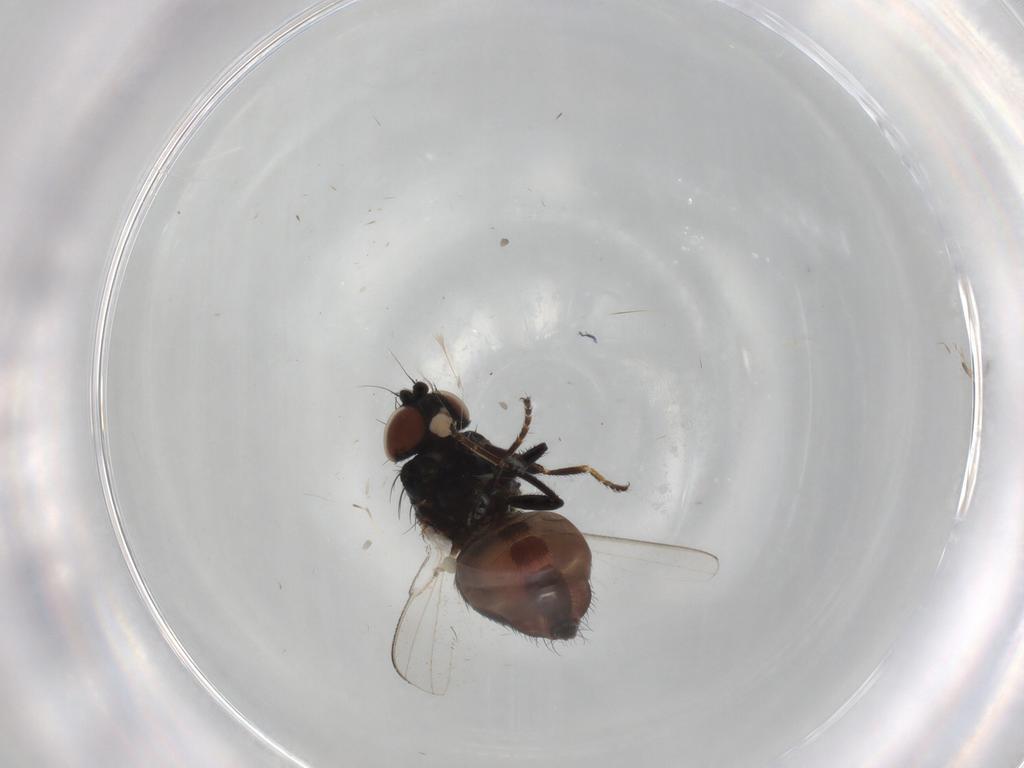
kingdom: Animalia
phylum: Arthropoda
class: Insecta
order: Diptera
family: Milichiidae
